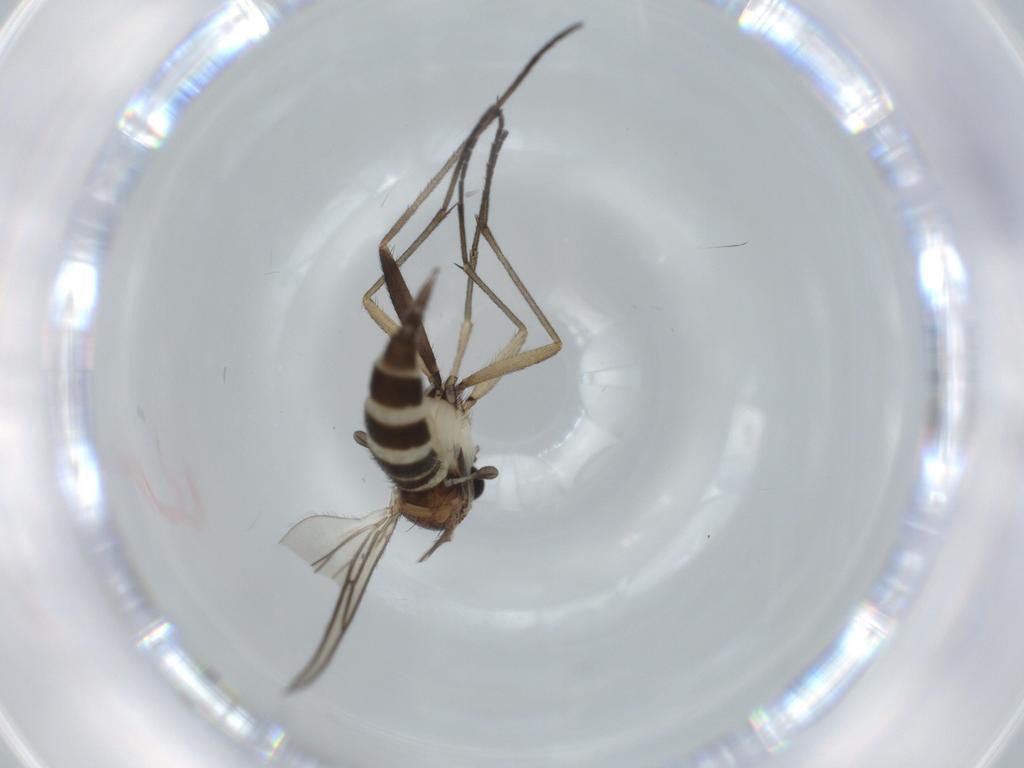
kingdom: Animalia
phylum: Arthropoda
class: Insecta
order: Diptera
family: Sciaridae
